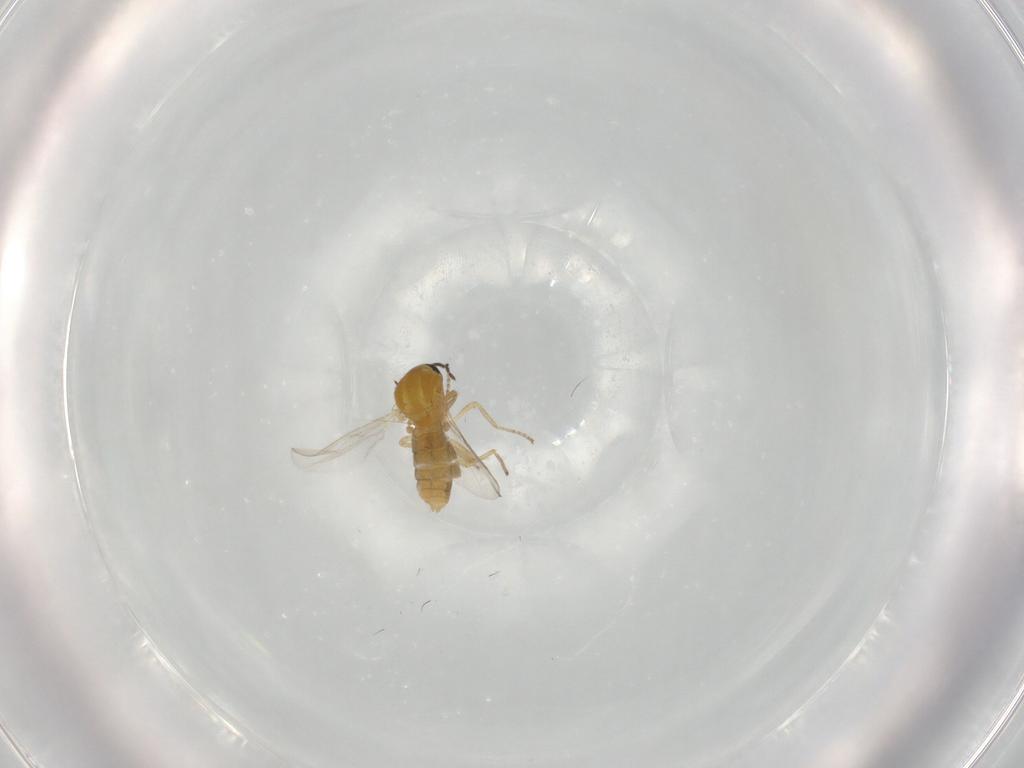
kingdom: Animalia
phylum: Arthropoda
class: Insecta
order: Diptera
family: Ceratopogonidae
